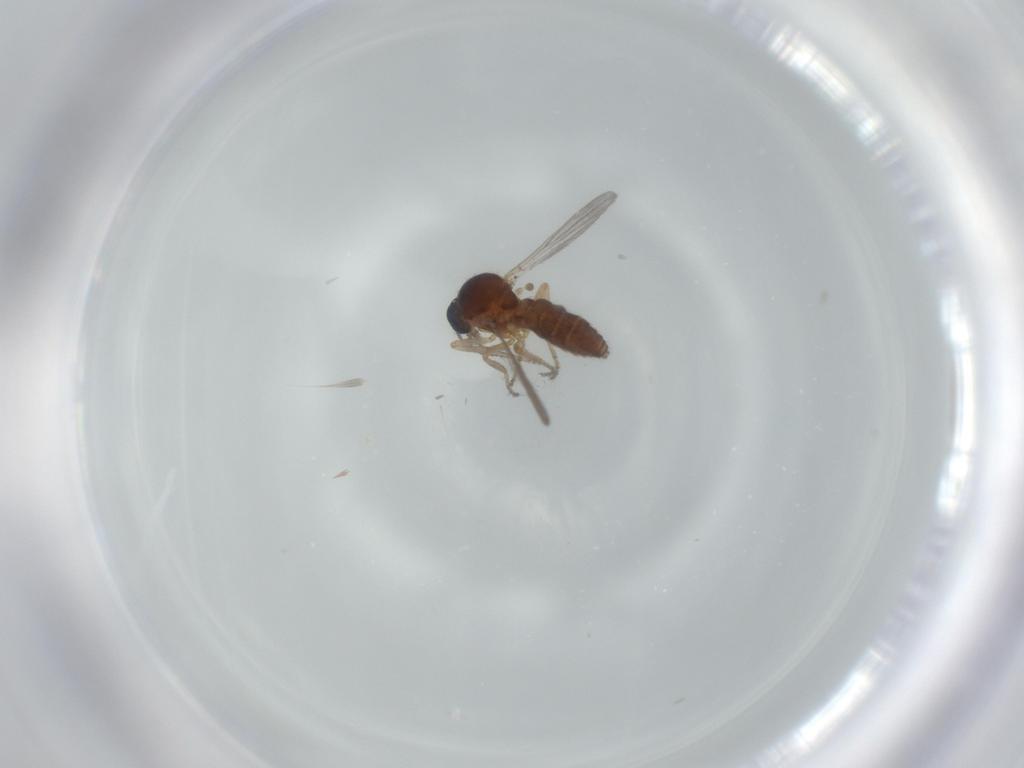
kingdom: Animalia
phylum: Arthropoda
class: Insecta
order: Diptera
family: Ceratopogonidae
